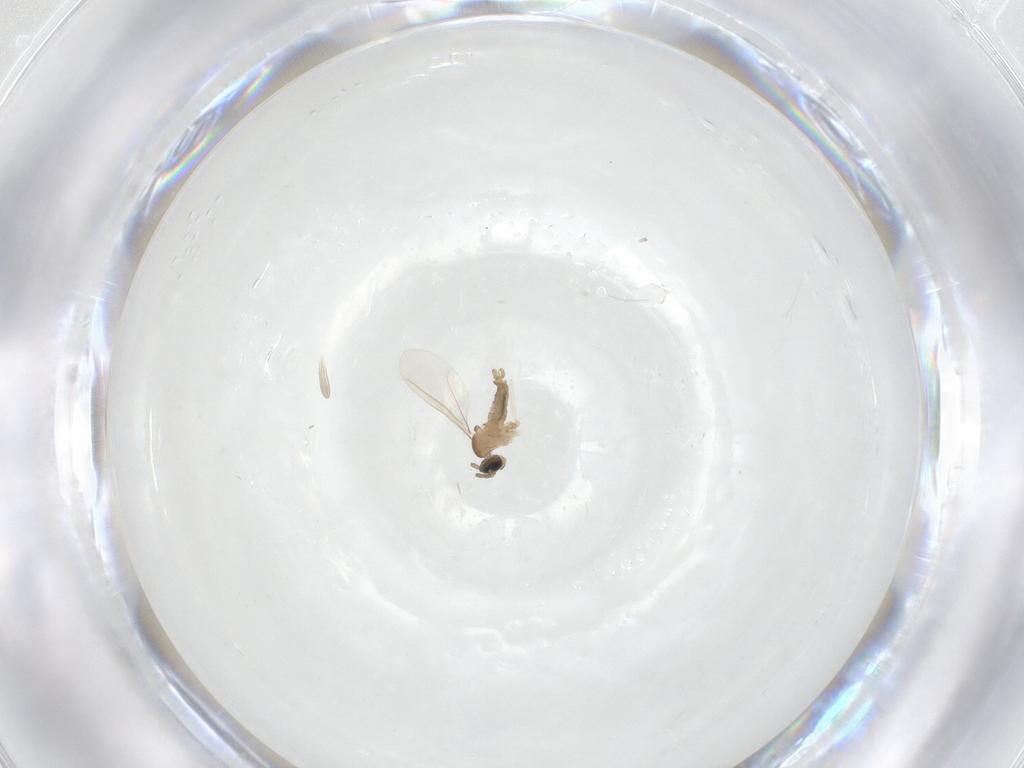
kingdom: Animalia
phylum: Arthropoda
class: Insecta
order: Diptera
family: Cecidomyiidae
